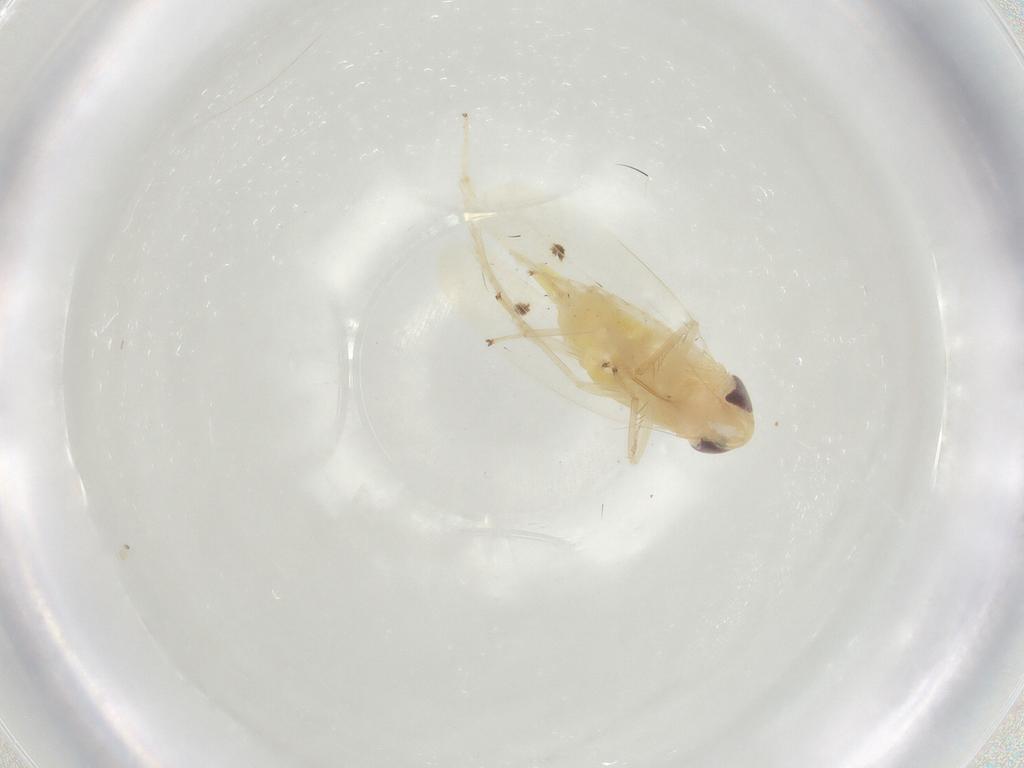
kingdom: Animalia
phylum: Arthropoda
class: Insecta
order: Hemiptera
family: Cicadellidae
